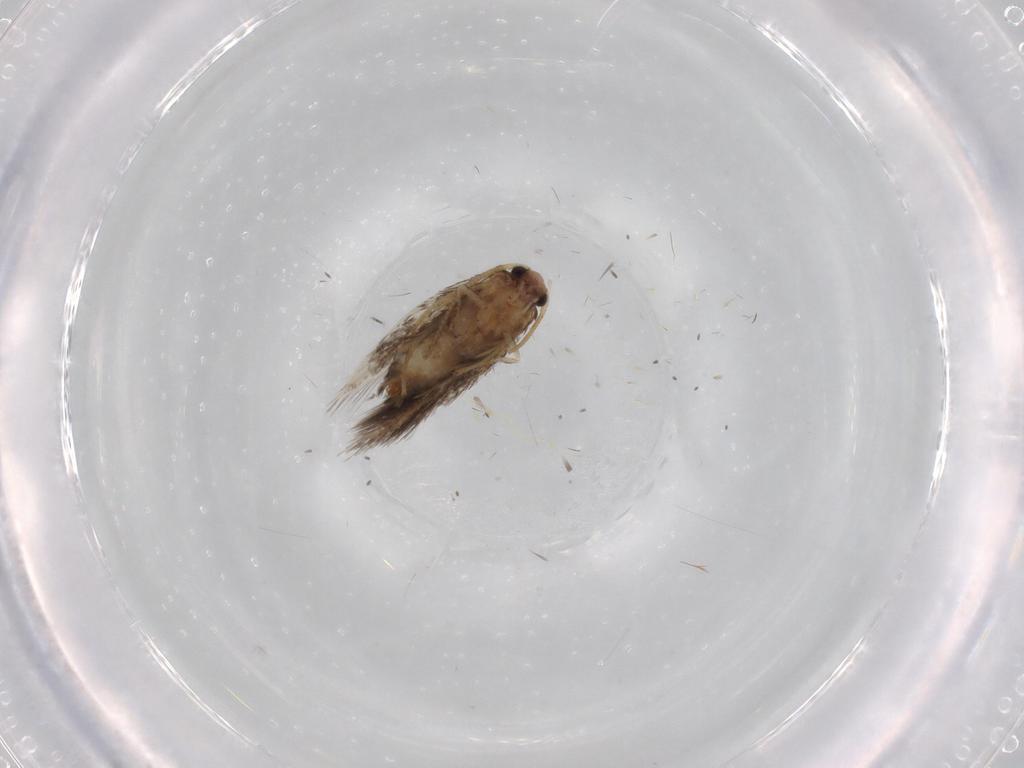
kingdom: Animalia
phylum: Arthropoda
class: Insecta
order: Lepidoptera
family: Nepticulidae
